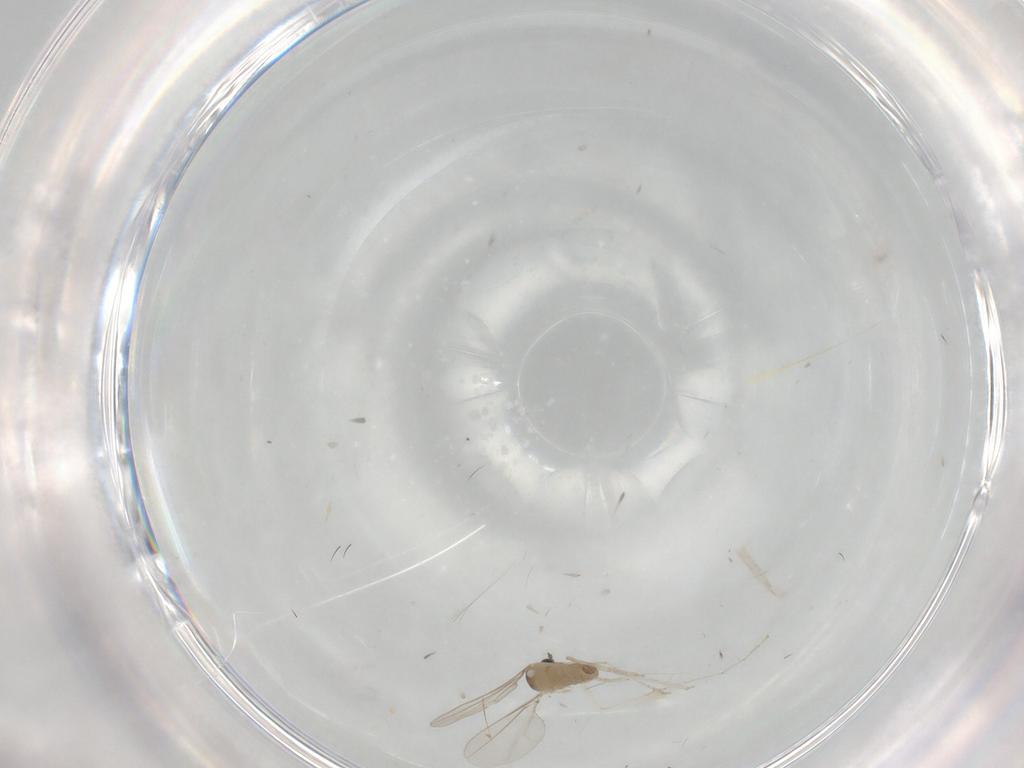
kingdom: Animalia
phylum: Arthropoda
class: Insecta
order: Diptera
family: Cecidomyiidae
